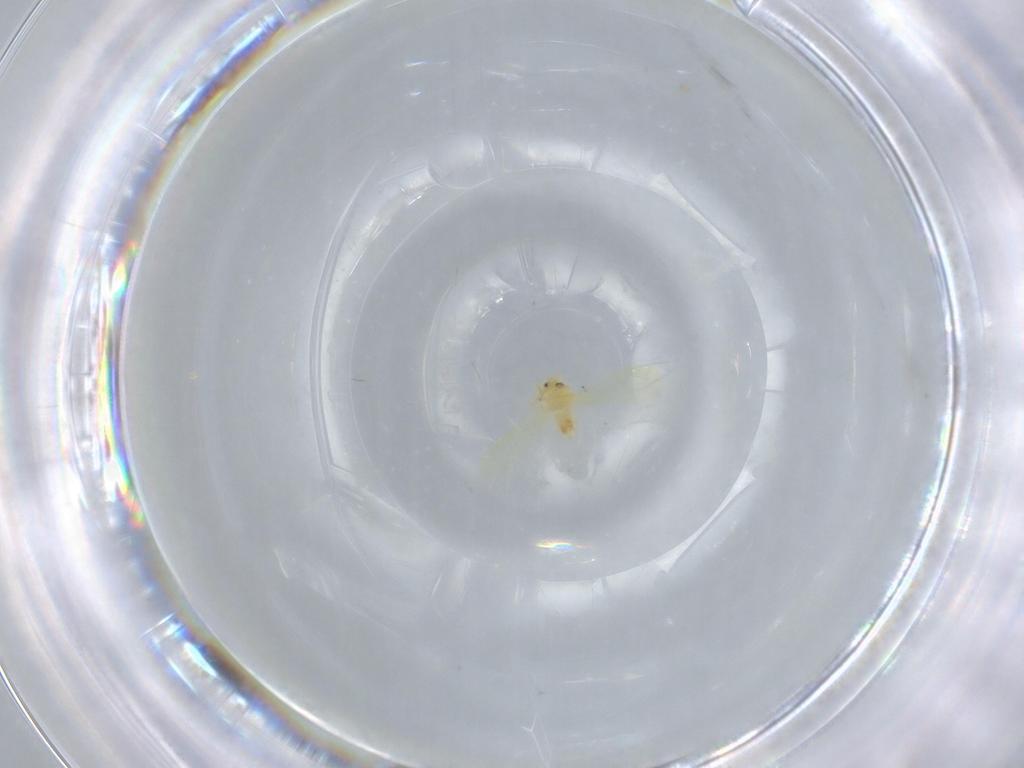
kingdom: Animalia
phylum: Arthropoda
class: Insecta
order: Hemiptera
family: Aleyrodidae
